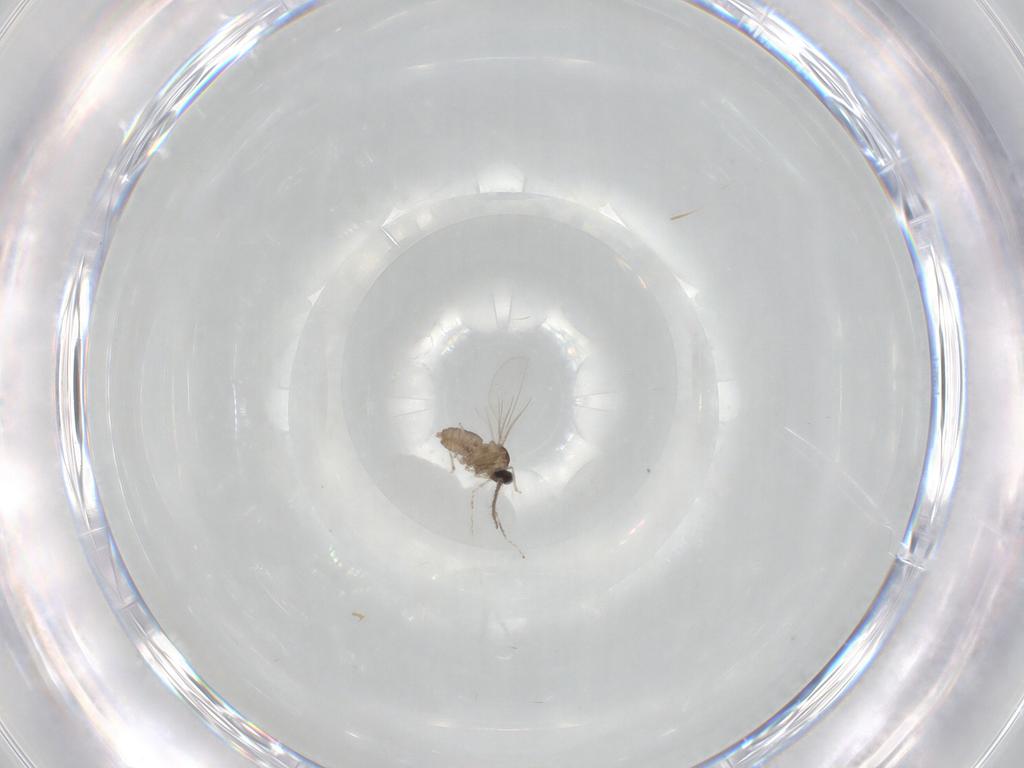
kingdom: Animalia
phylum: Arthropoda
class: Insecta
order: Diptera
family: Cecidomyiidae
